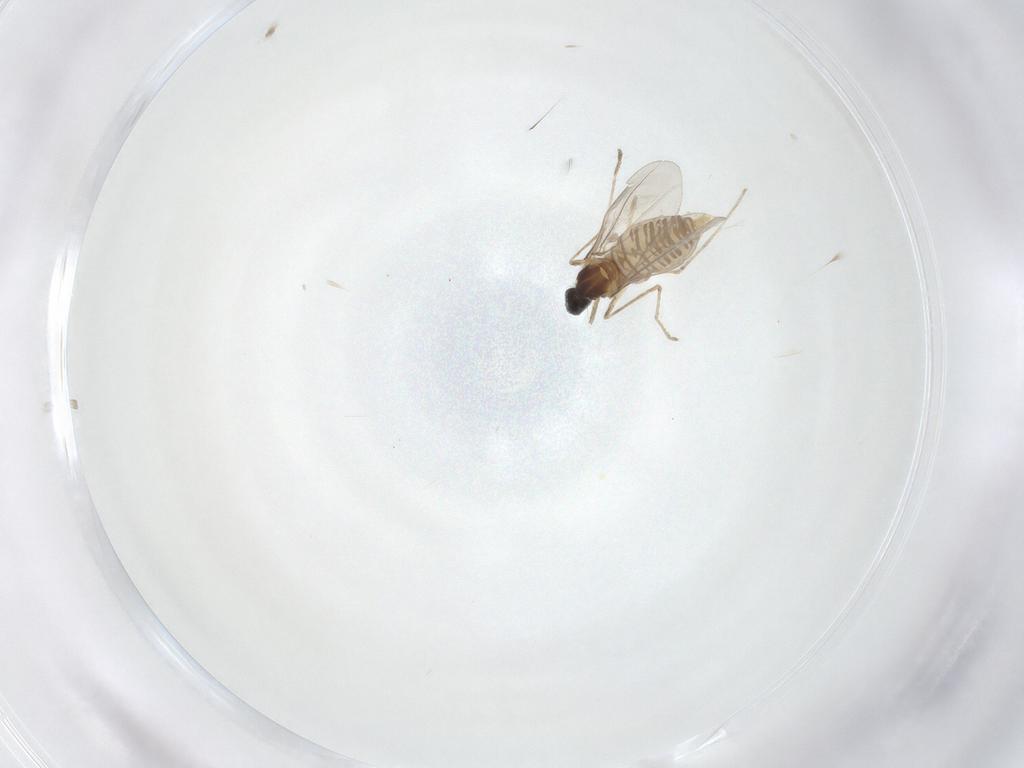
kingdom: Animalia
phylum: Arthropoda
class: Insecta
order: Diptera
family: Cecidomyiidae
